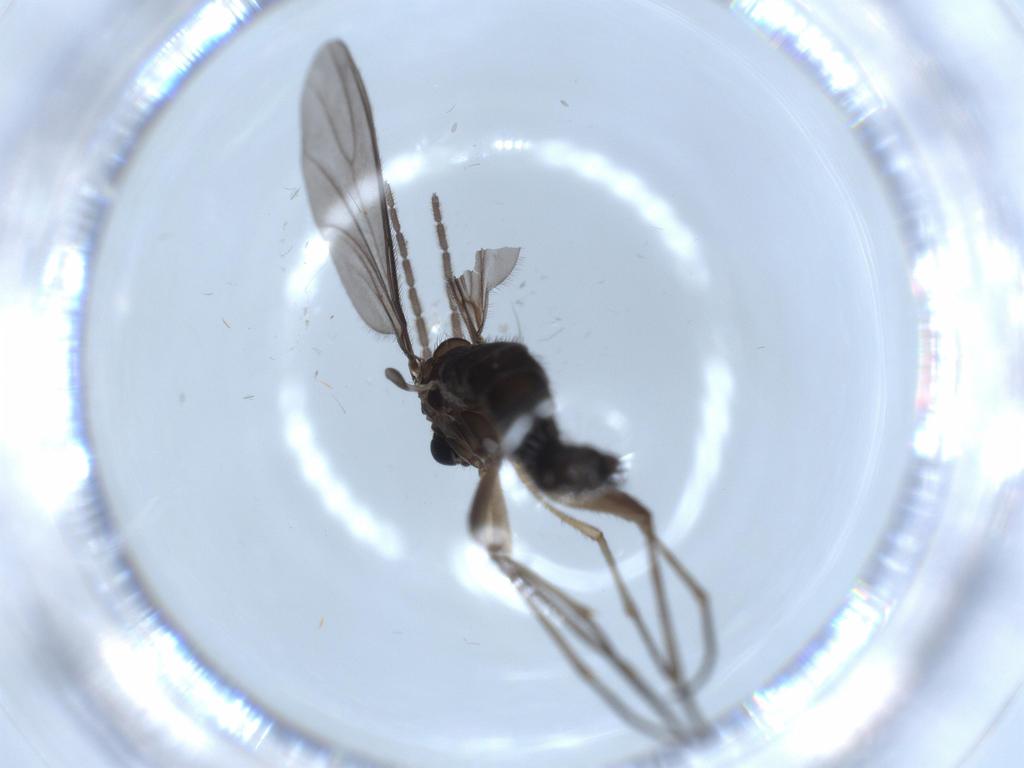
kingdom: Animalia
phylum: Arthropoda
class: Insecta
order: Diptera
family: Sciaridae
